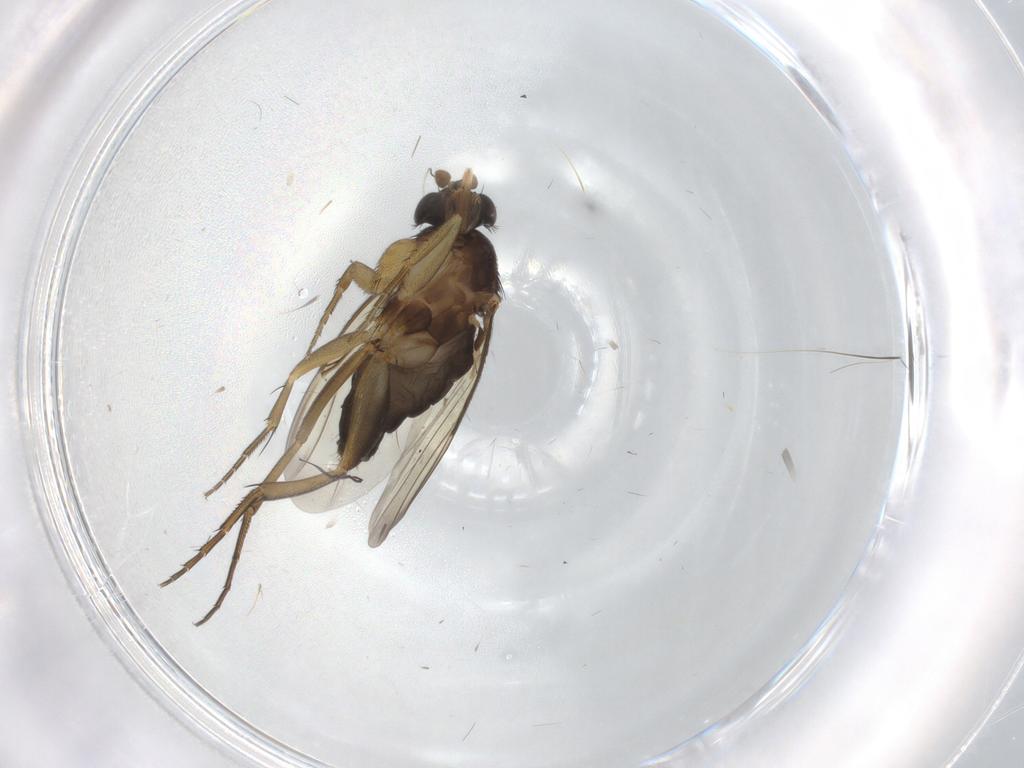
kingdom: Animalia
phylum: Arthropoda
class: Insecta
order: Diptera
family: Phoridae
